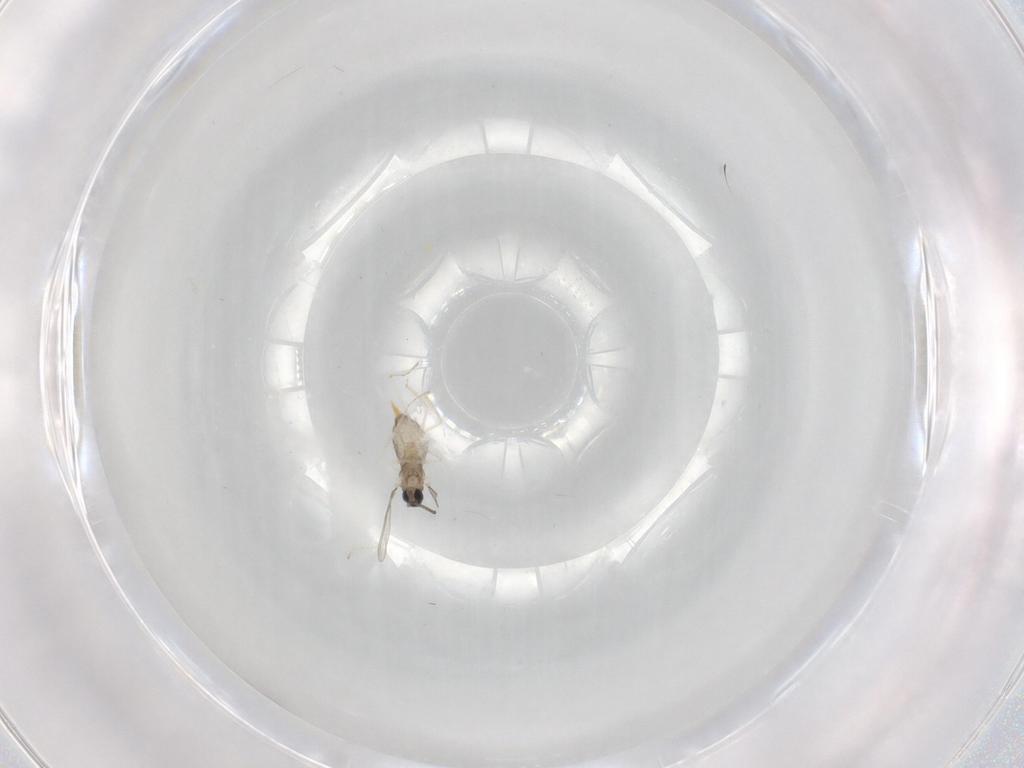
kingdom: Animalia
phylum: Arthropoda
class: Insecta
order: Diptera
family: Cecidomyiidae
